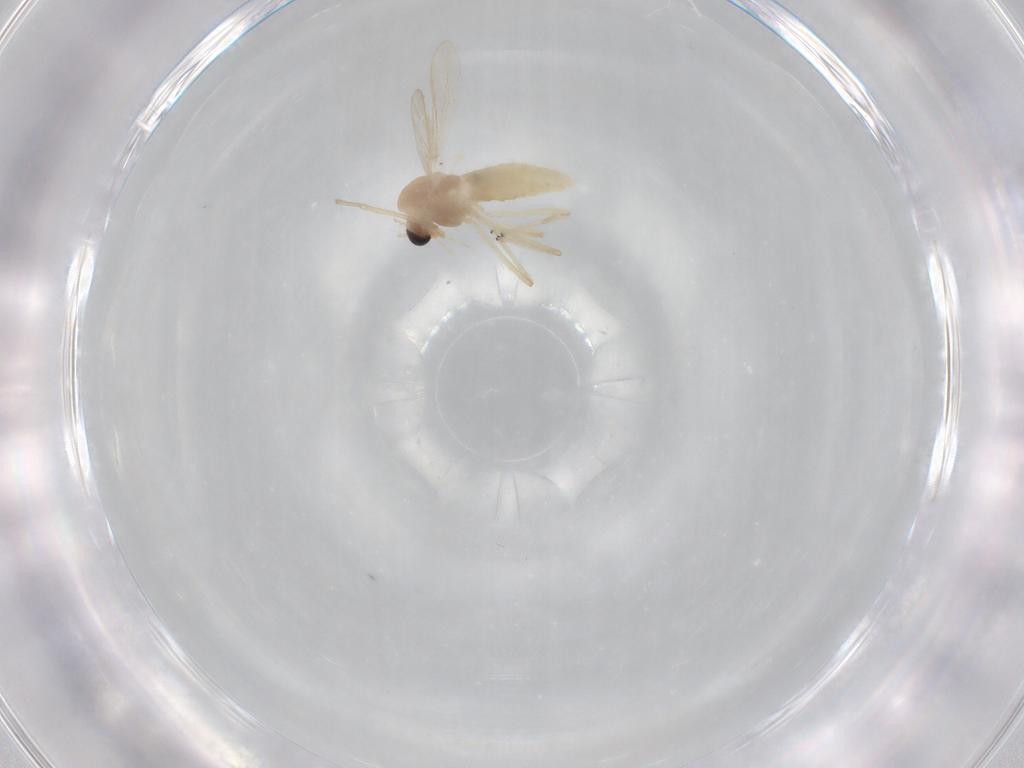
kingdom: Animalia
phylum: Arthropoda
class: Insecta
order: Diptera
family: Chironomidae
